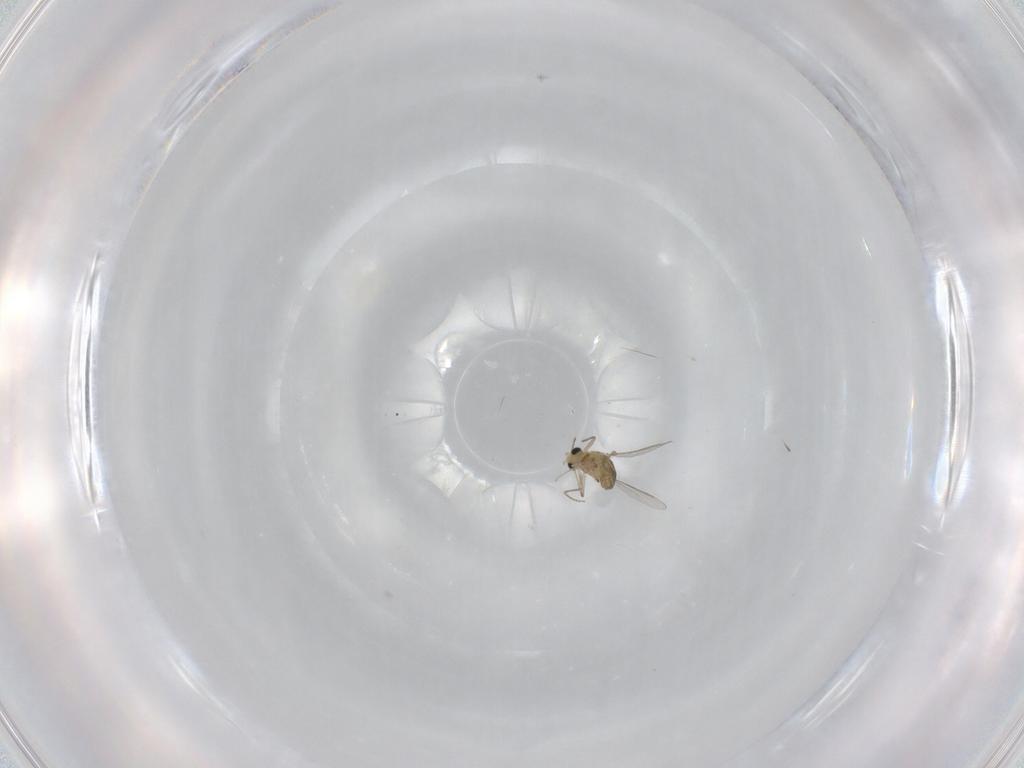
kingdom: Animalia
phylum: Arthropoda
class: Insecta
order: Diptera
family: Chironomidae
